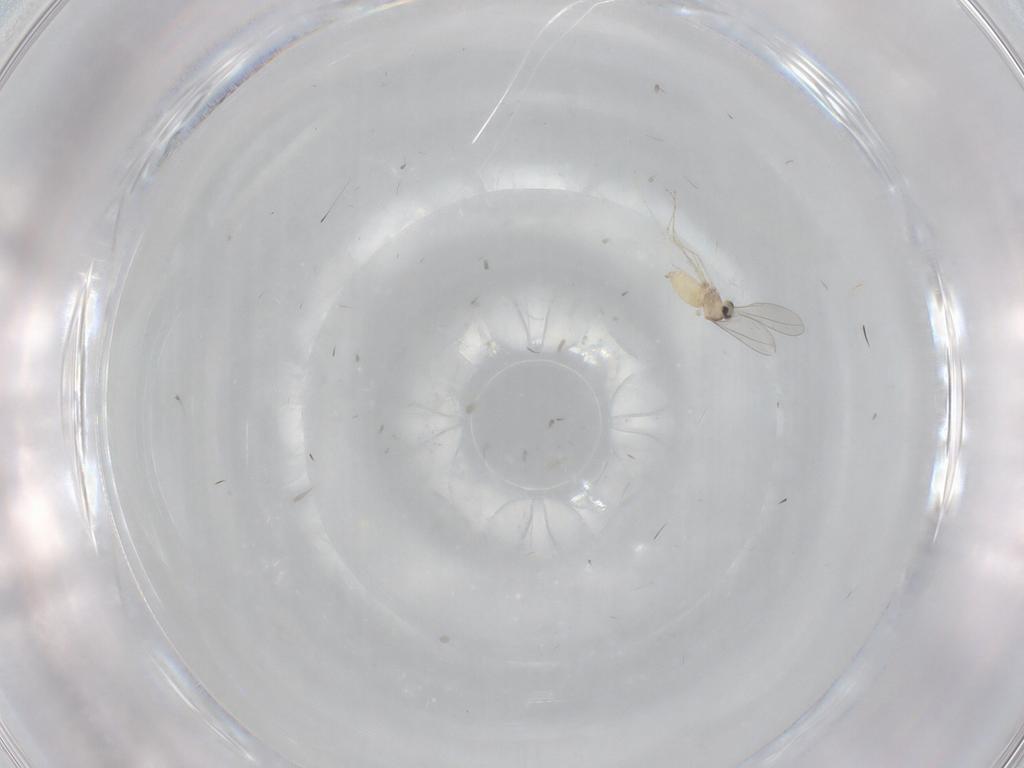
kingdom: Animalia
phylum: Arthropoda
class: Insecta
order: Diptera
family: Cecidomyiidae
